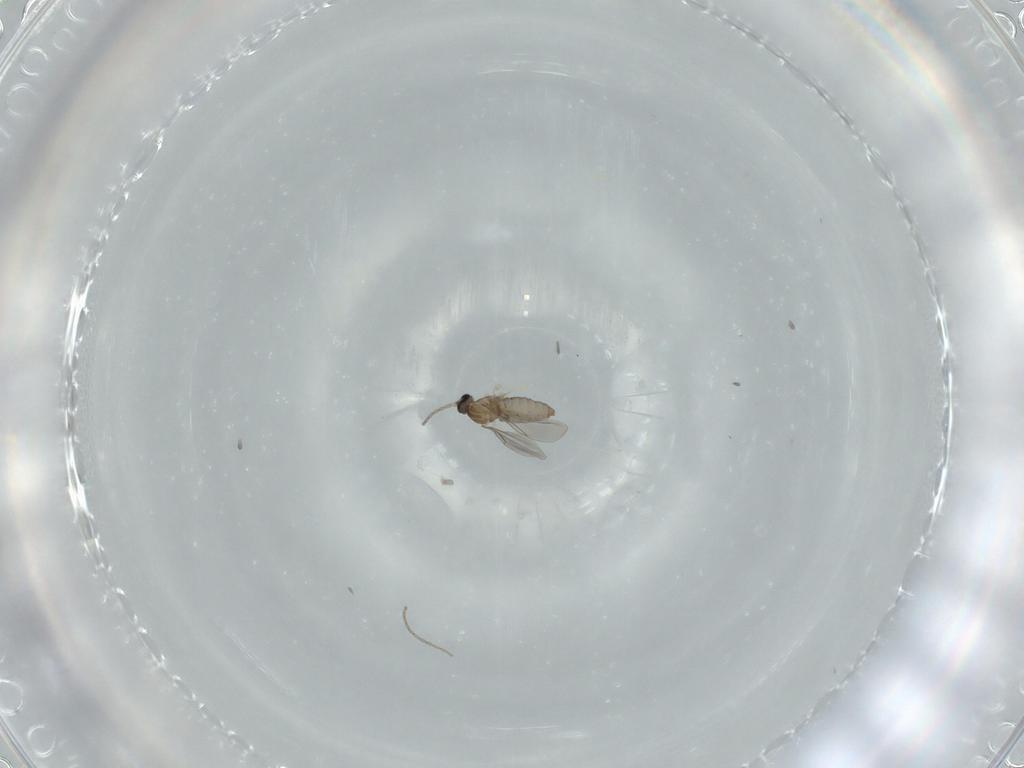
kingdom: Animalia
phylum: Arthropoda
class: Insecta
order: Diptera
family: Cecidomyiidae
